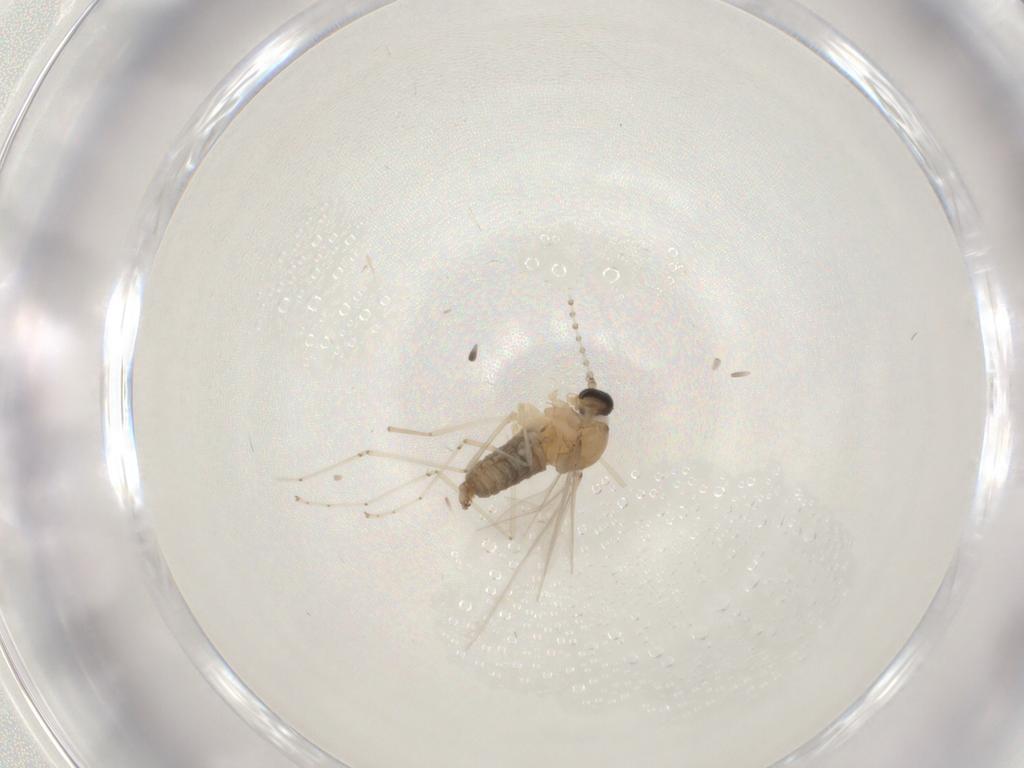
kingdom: Animalia
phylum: Arthropoda
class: Insecta
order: Diptera
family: Cecidomyiidae
